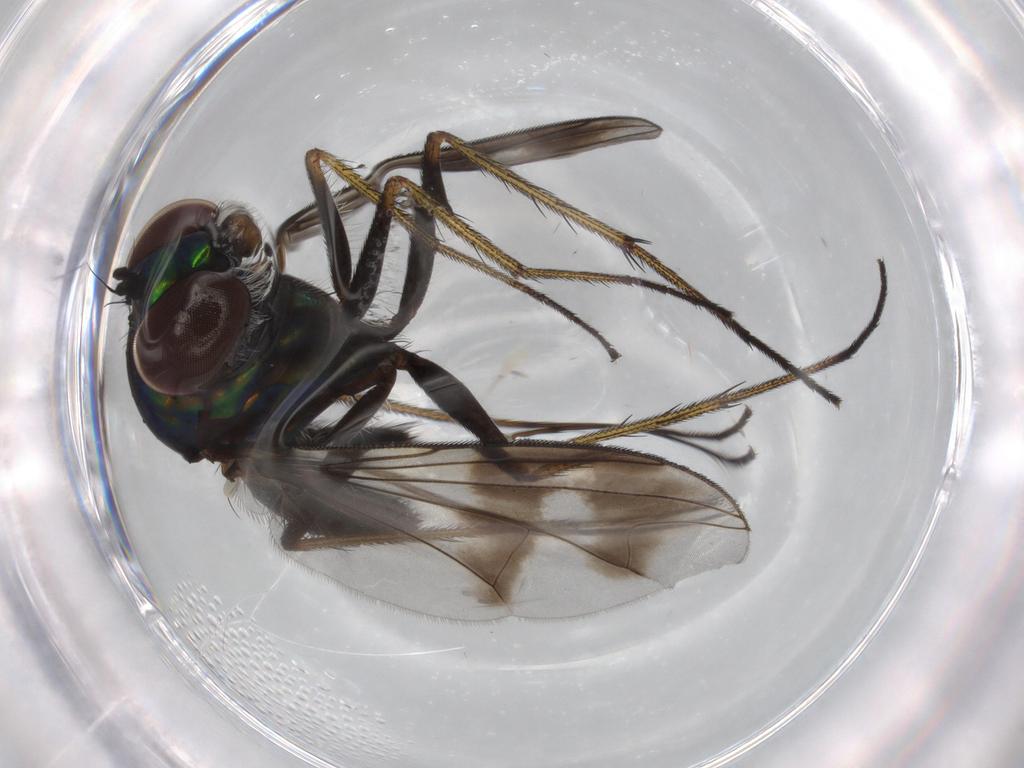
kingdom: Animalia
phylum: Arthropoda
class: Insecta
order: Diptera
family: Dolichopodidae
